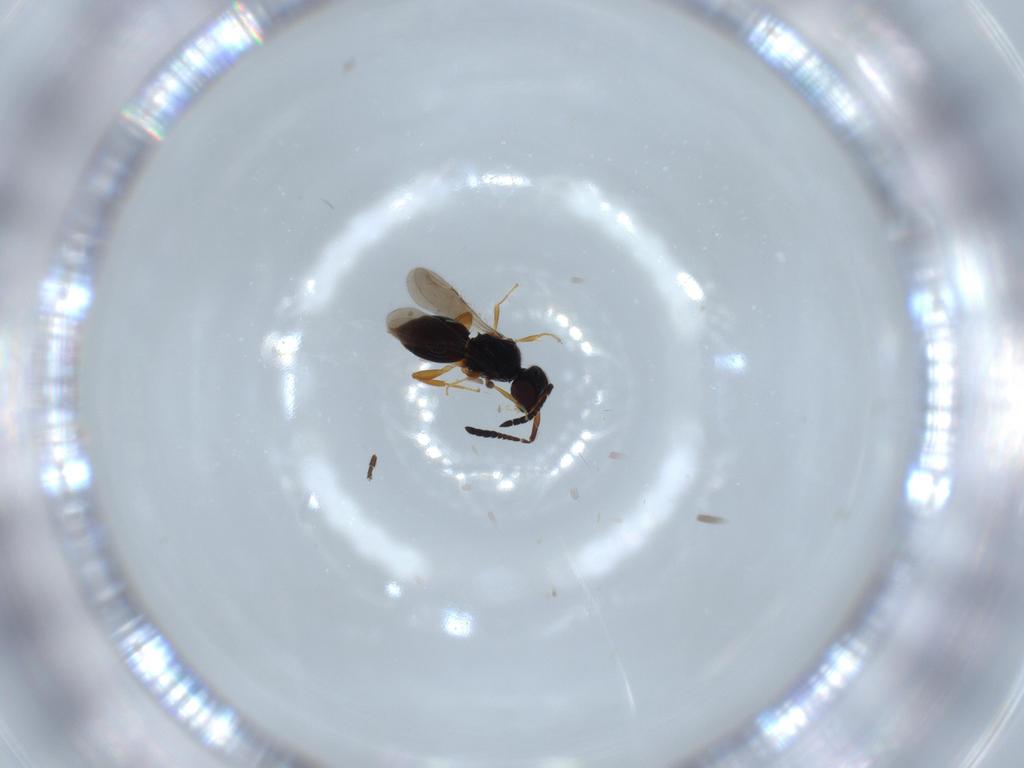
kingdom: Animalia
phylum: Arthropoda
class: Insecta
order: Hymenoptera
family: Ceraphronidae
